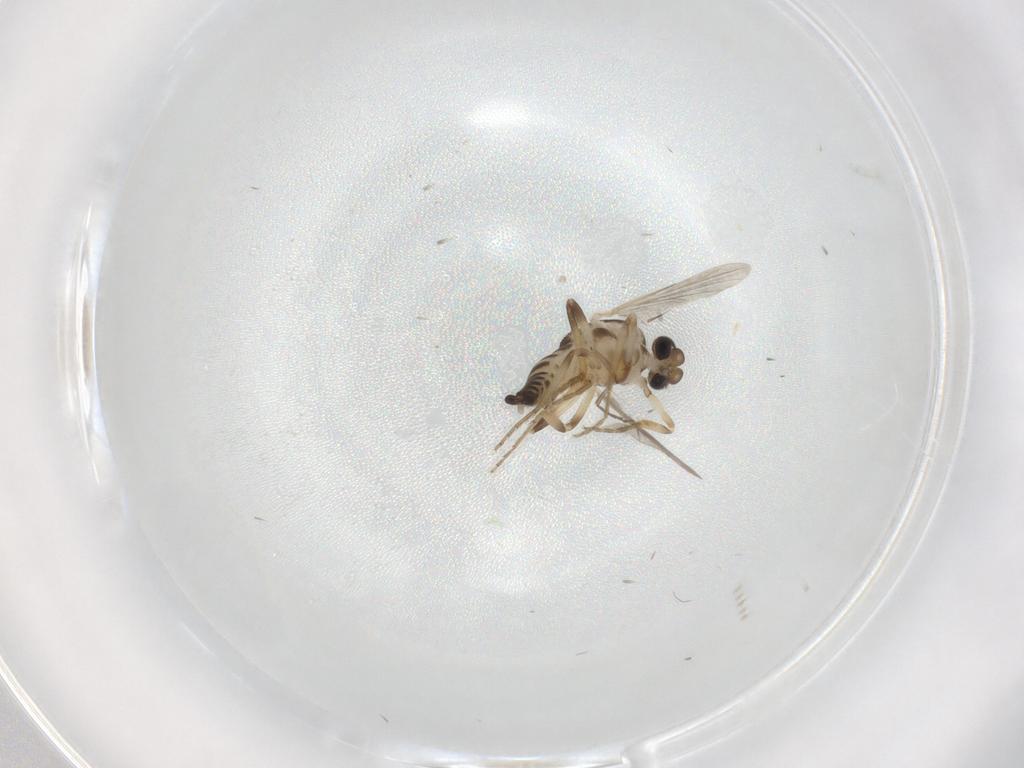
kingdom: Animalia
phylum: Arthropoda
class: Insecta
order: Diptera
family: Ceratopogonidae
